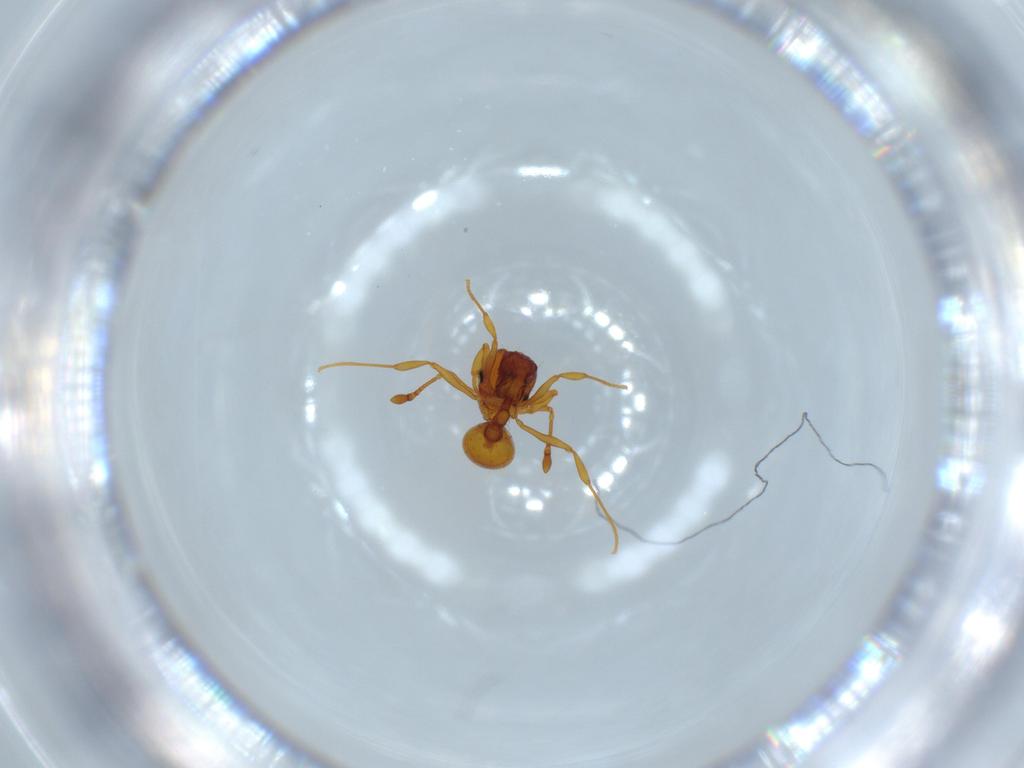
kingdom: Animalia
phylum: Arthropoda
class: Insecta
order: Hymenoptera
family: Formicidae
